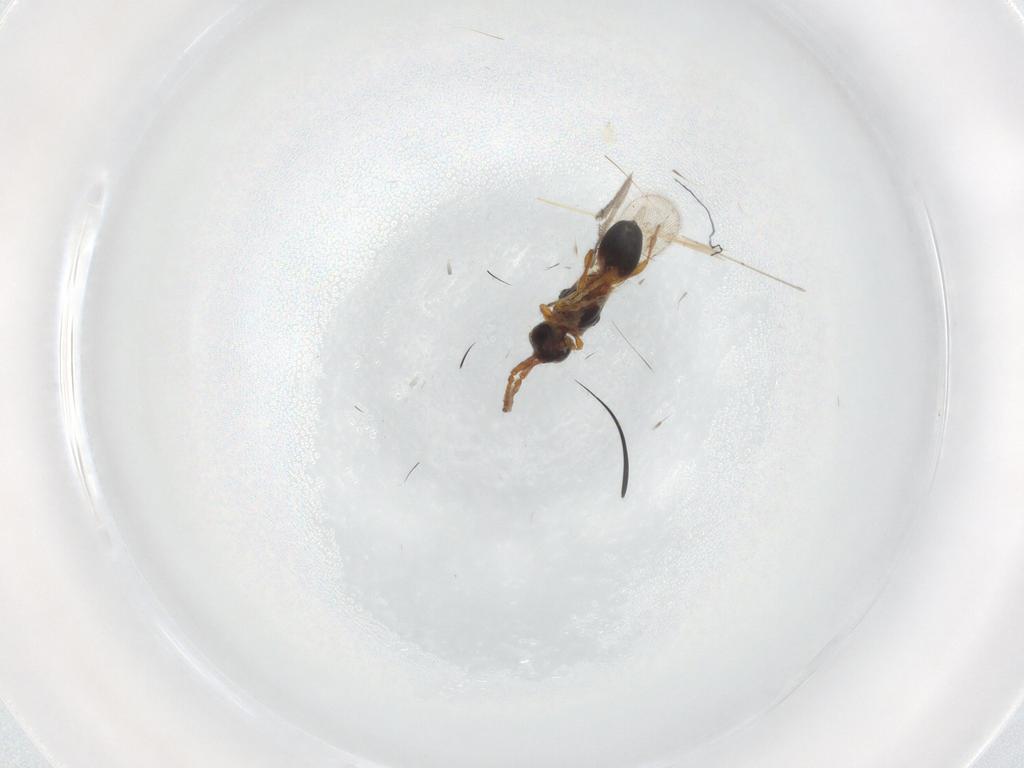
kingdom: Animalia
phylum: Arthropoda
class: Insecta
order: Hymenoptera
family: Diapriidae
